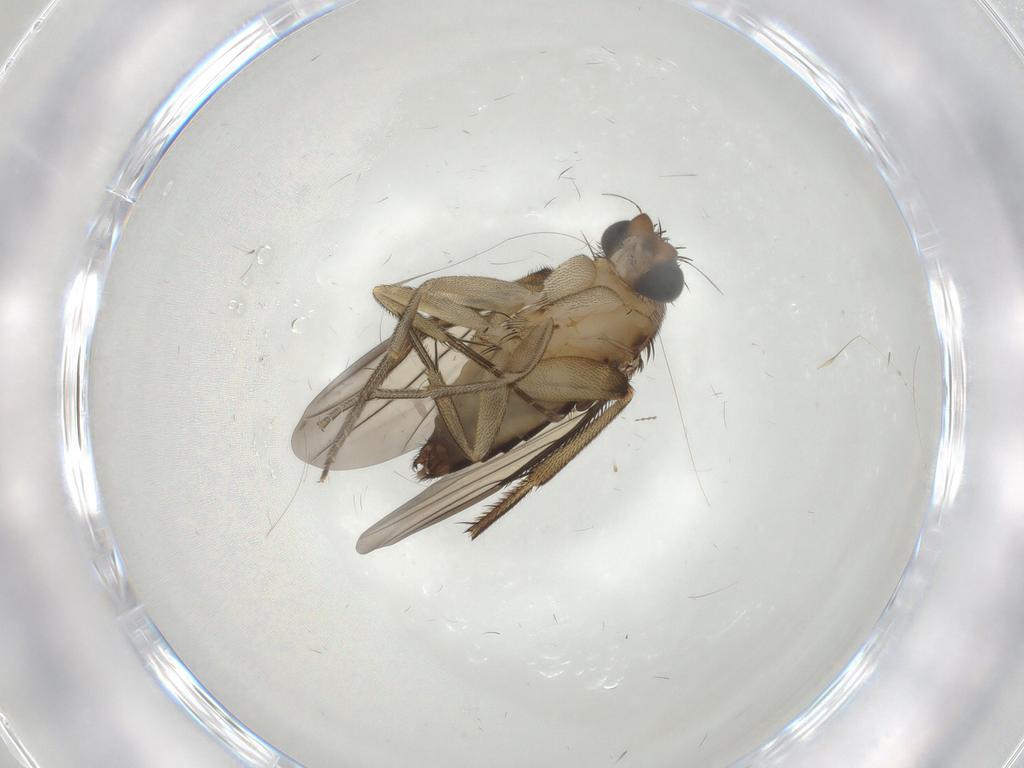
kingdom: Animalia
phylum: Arthropoda
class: Insecta
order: Diptera
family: Chironomidae
